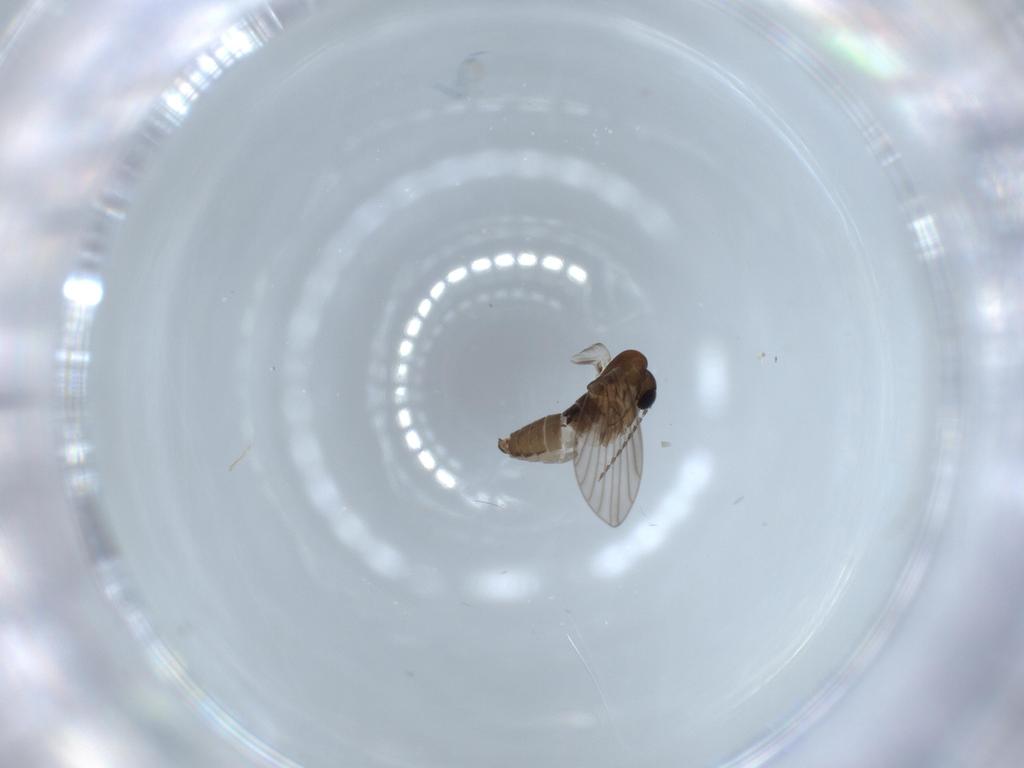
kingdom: Animalia
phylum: Arthropoda
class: Insecta
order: Diptera
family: Psychodidae
